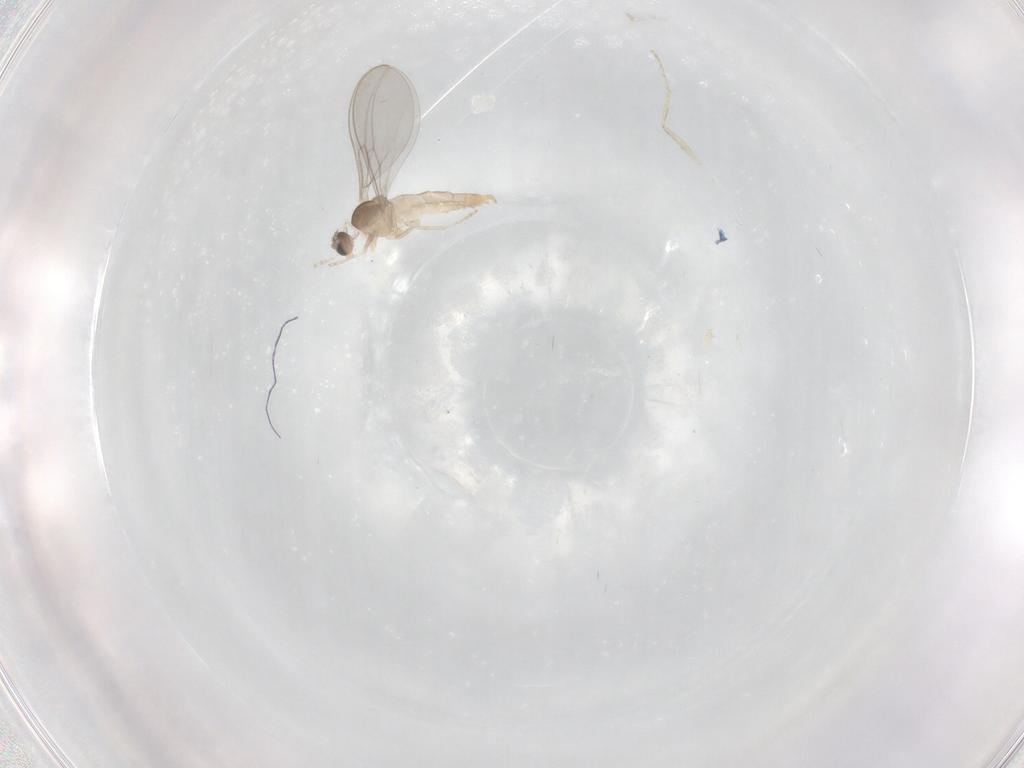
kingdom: Animalia
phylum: Arthropoda
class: Insecta
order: Diptera
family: Cecidomyiidae
